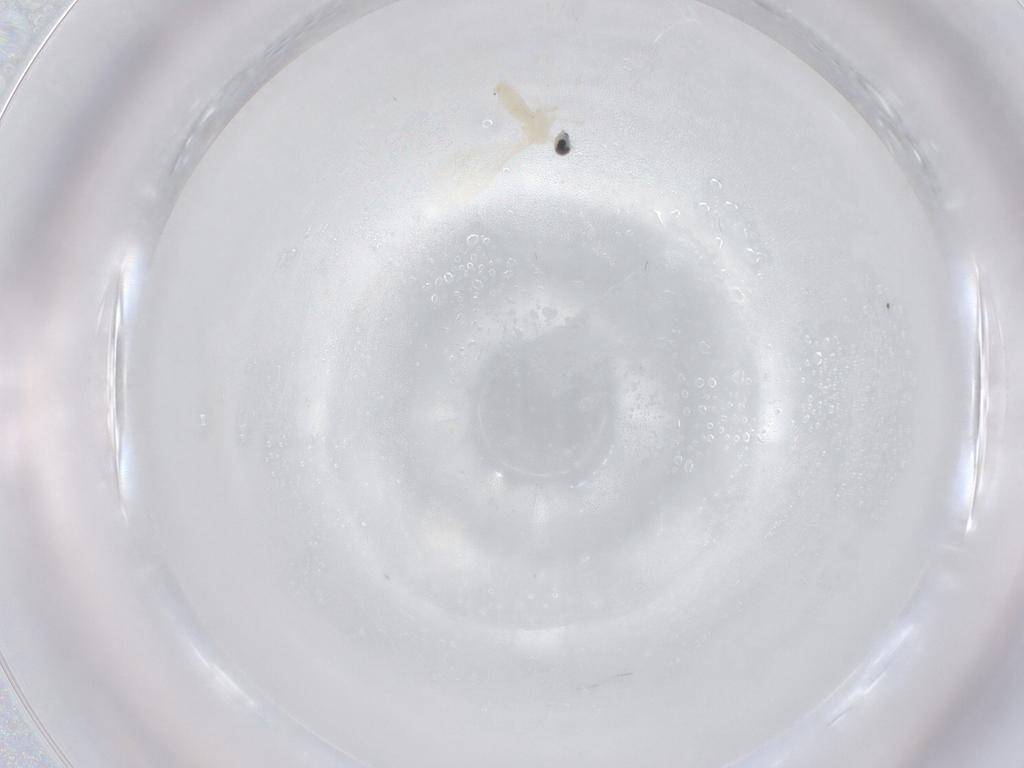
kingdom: Animalia
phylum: Arthropoda
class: Insecta
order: Diptera
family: Cecidomyiidae
